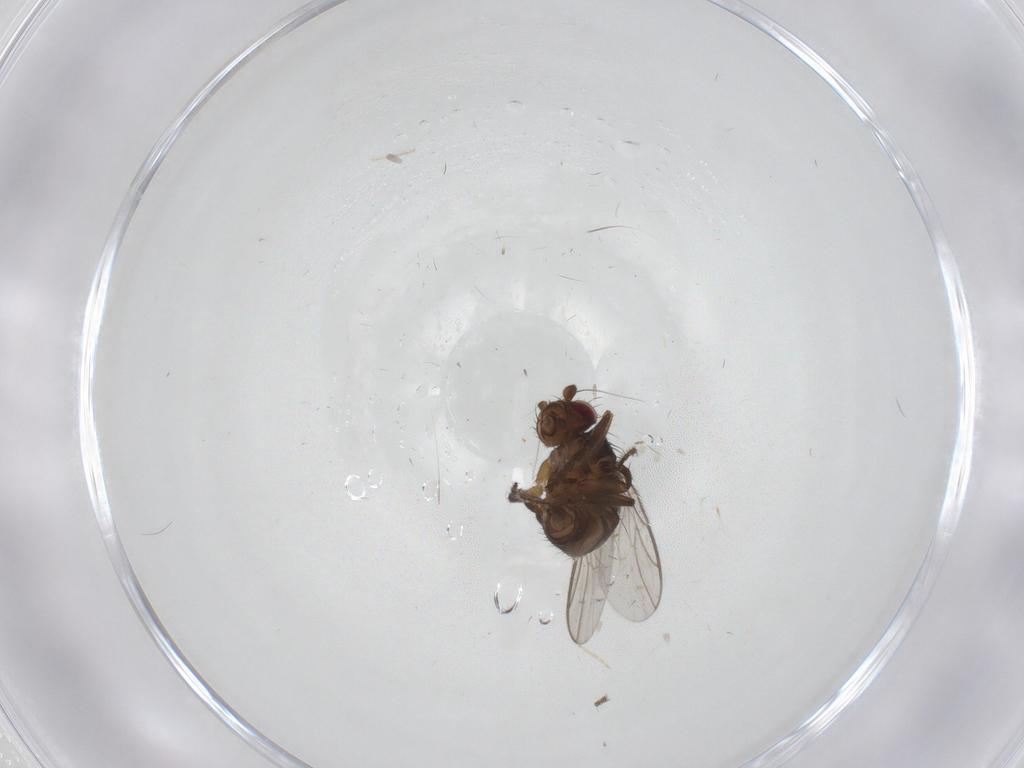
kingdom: Animalia
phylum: Arthropoda
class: Insecta
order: Diptera
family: Sphaeroceridae
